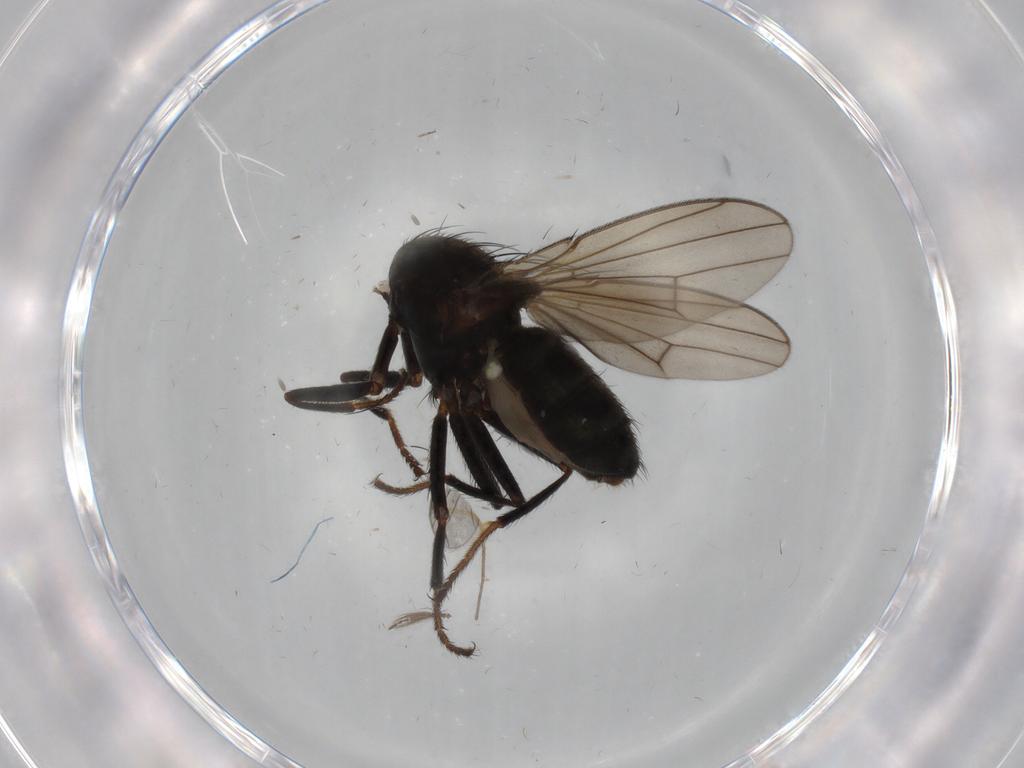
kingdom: Animalia
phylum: Arthropoda
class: Insecta
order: Diptera
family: Ephydridae
